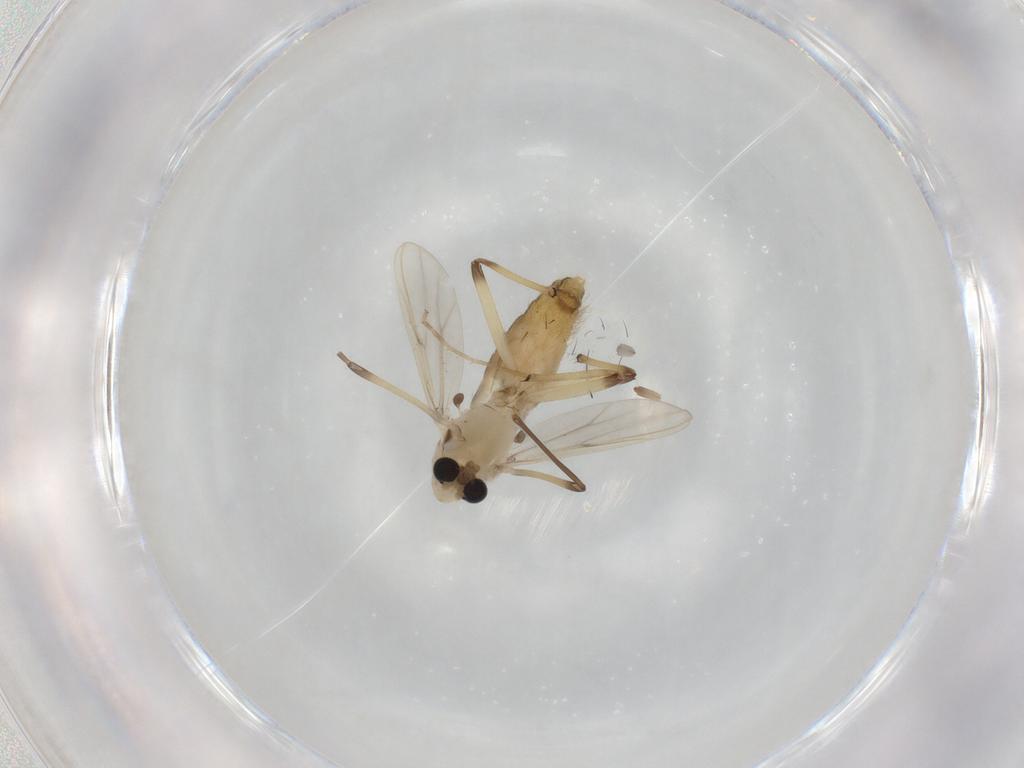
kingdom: Animalia
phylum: Arthropoda
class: Insecta
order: Diptera
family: Chironomidae
